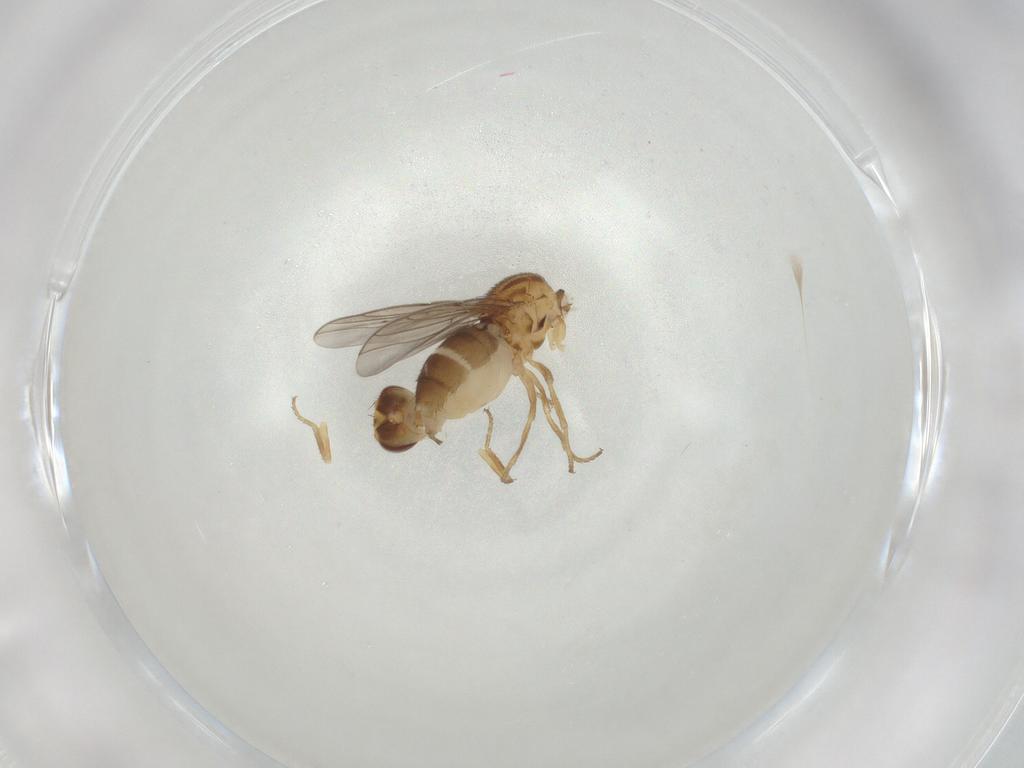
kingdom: Animalia
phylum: Arthropoda
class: Insecta
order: Diptera
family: Chloropidae
